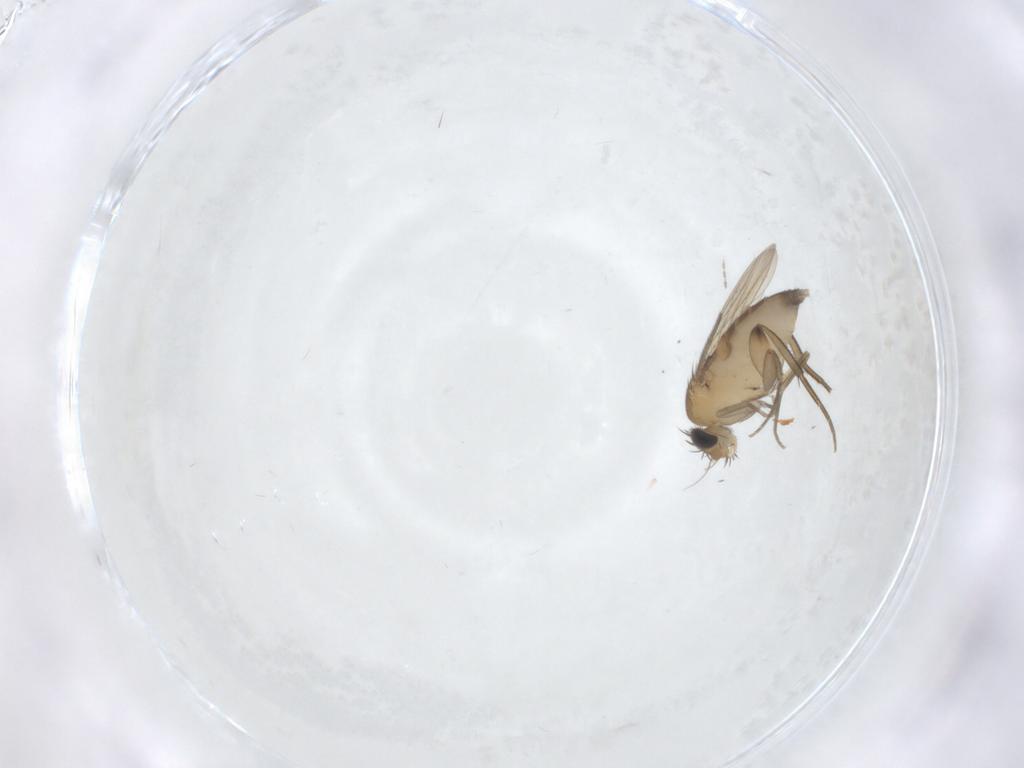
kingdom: Animalia
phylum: Arthropoda
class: Insecta
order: Diptera
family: Phoridae
